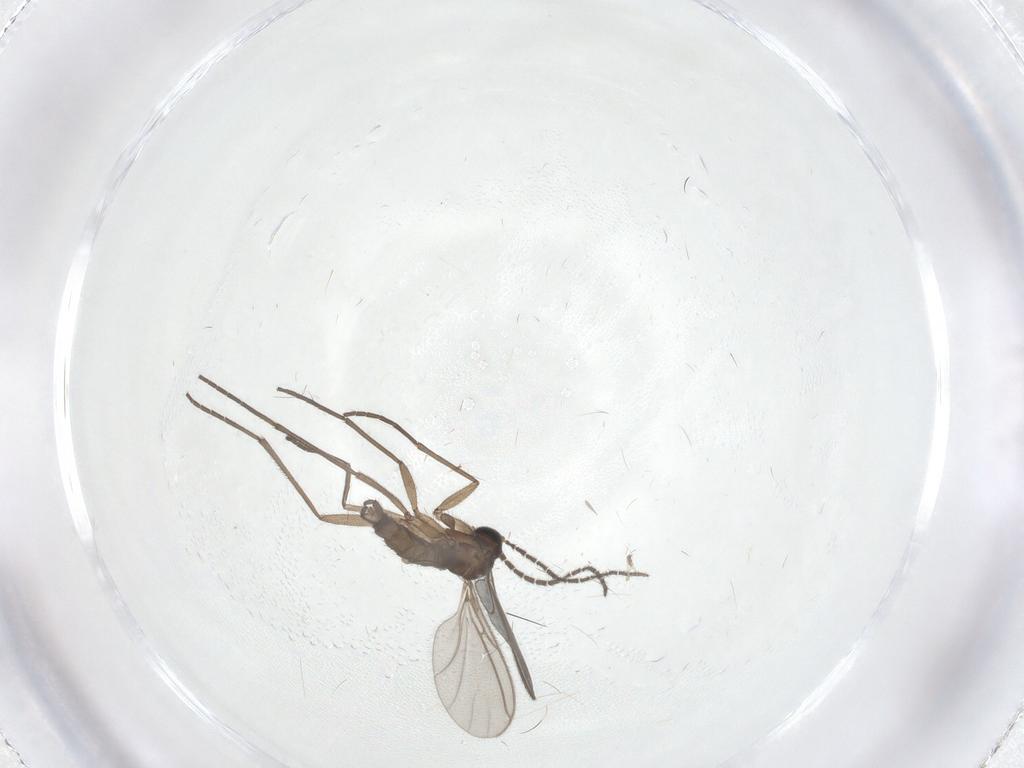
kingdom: Animalia
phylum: Arthropoda
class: Insecta
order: Diptera
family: Sciaridae
